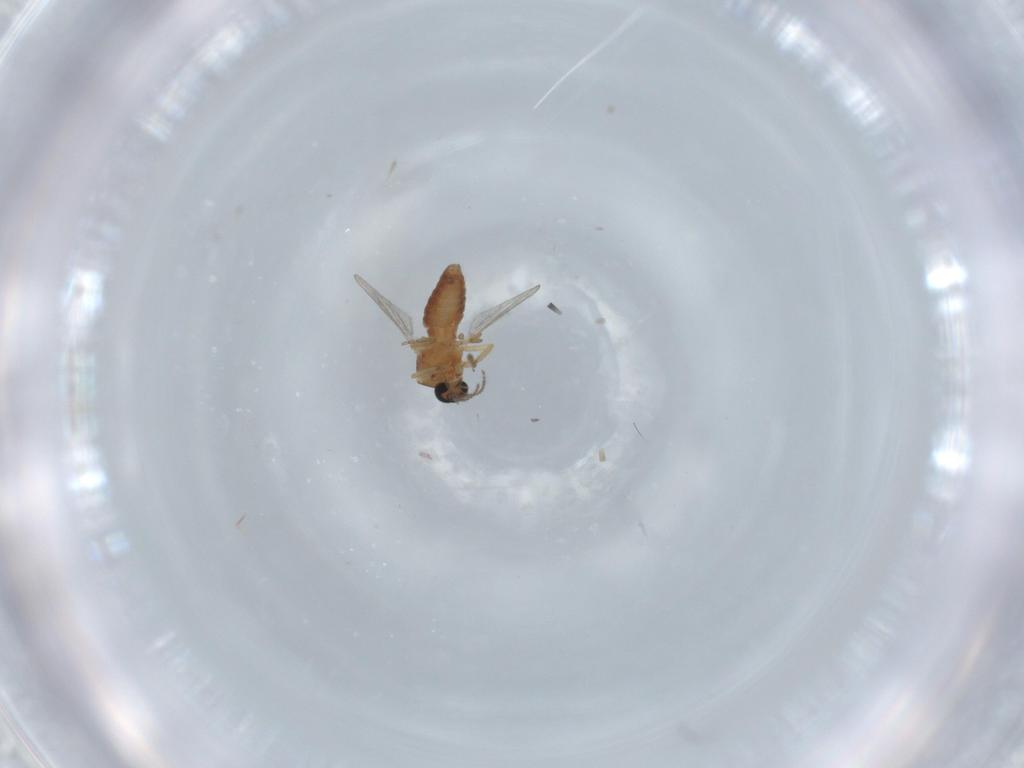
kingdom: Animalia
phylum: Arthropoda
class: Insecta
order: Diptera
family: Ceratopogonidae
